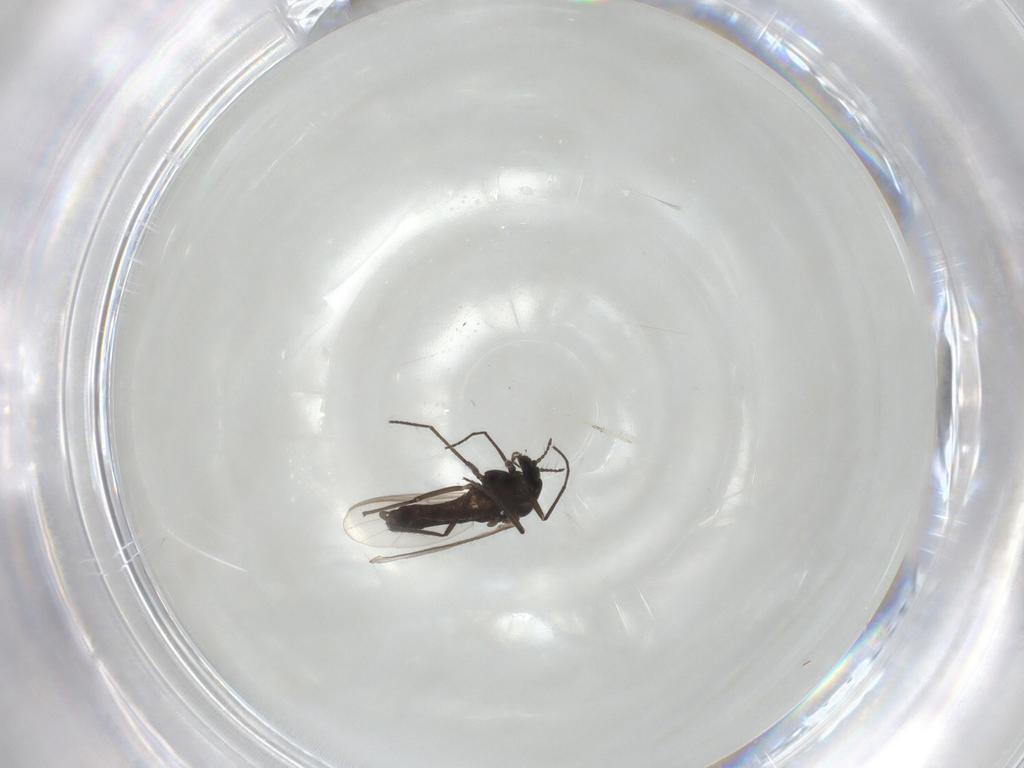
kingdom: Animalia
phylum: Arthropoda
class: Insecta
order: Diptera
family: Chironomidae
